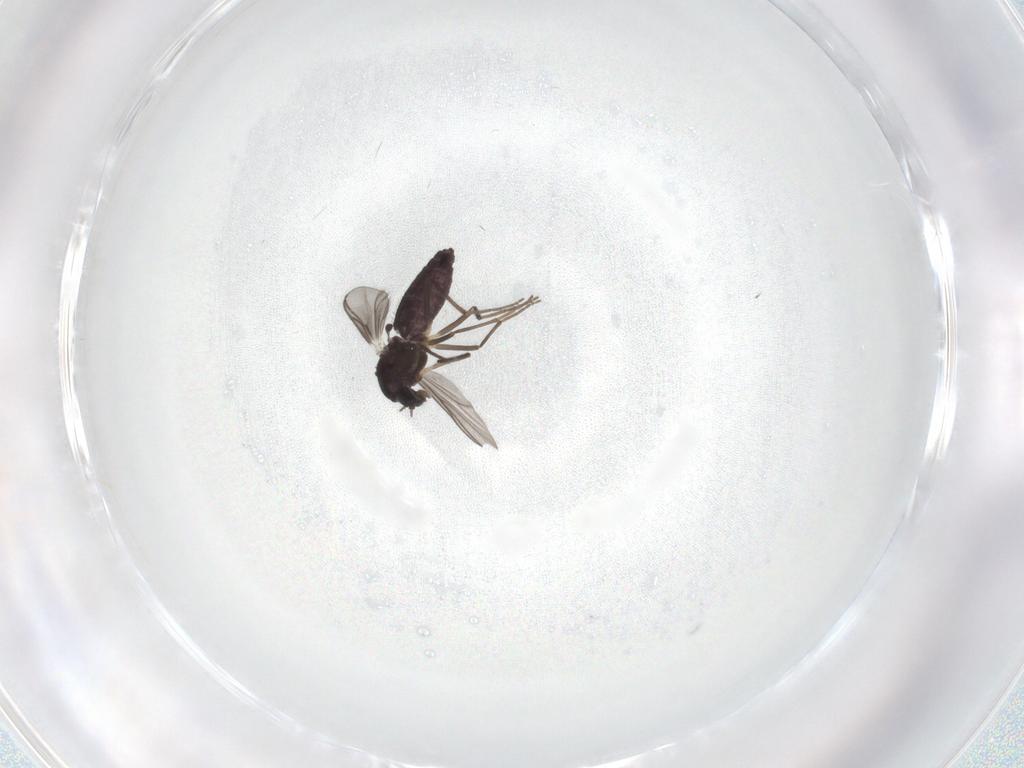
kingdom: Animalia
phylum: Arthropoda
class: Insecta
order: Diptera
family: Chironomidae
